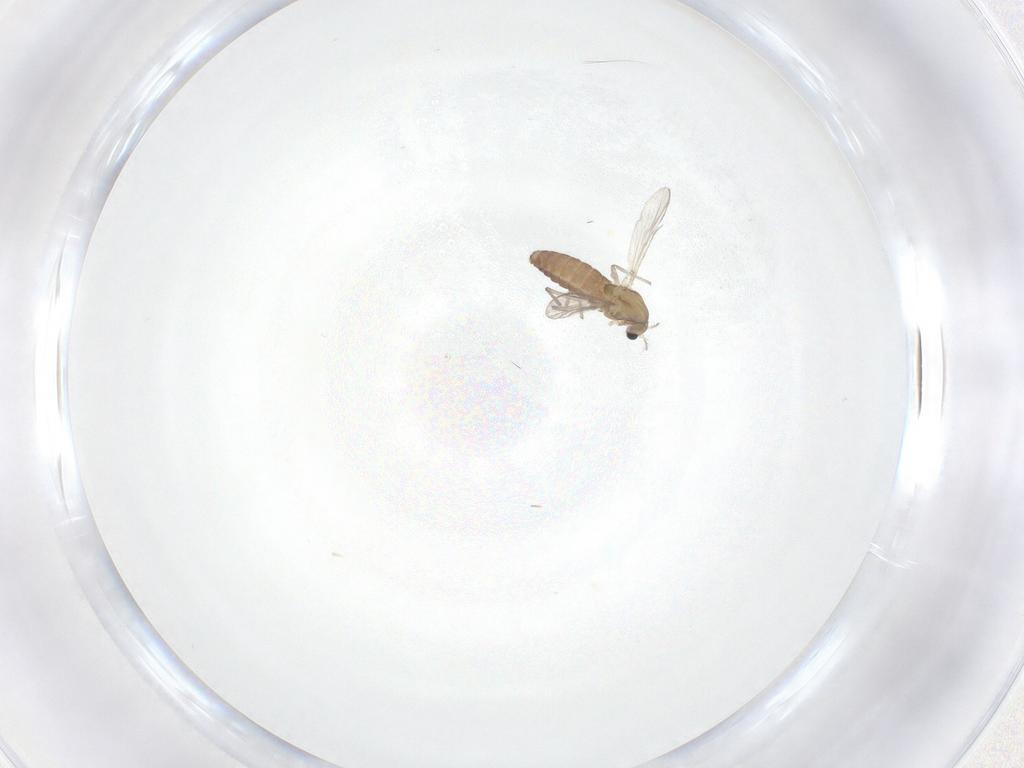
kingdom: Animalia
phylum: Arthropoda
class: Insecta
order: Diptera
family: Chironomidae
